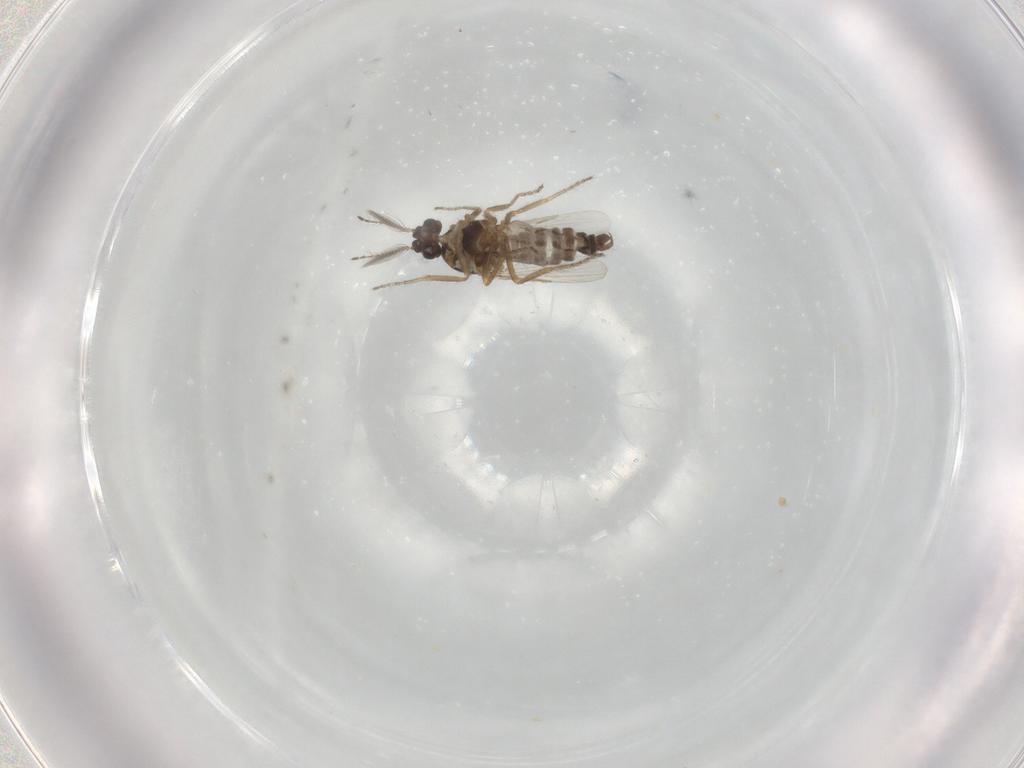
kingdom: Animalia
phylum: Arthropoda
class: Insecta
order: Diptera
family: Ceratopogonidae
